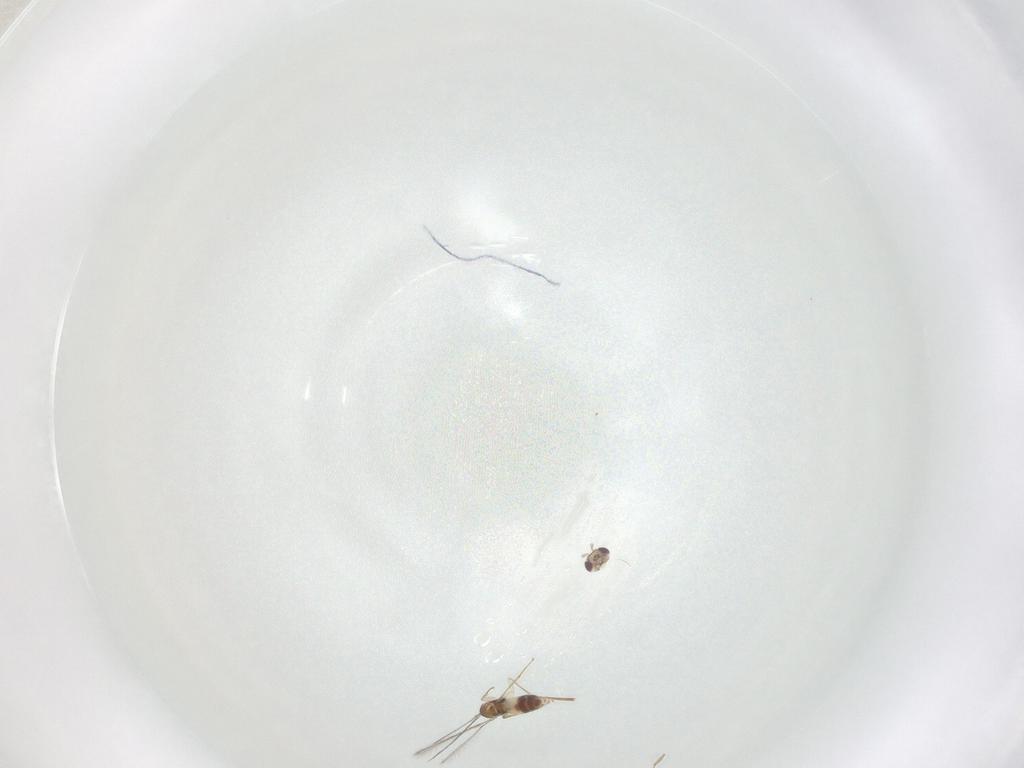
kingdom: Animalia
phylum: Arthropoda
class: Insecta
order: Hymenoptera
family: Mymaridae
